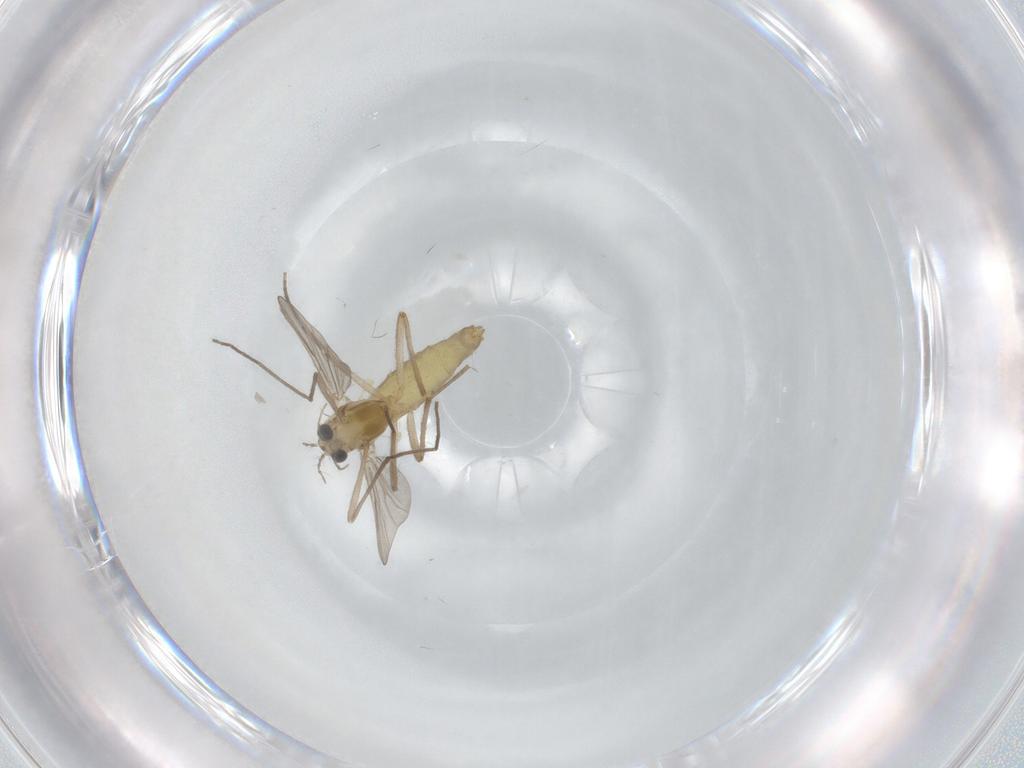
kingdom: Animalia
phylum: Arthropoda
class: Insecta
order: Diptera
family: Chironomidae
